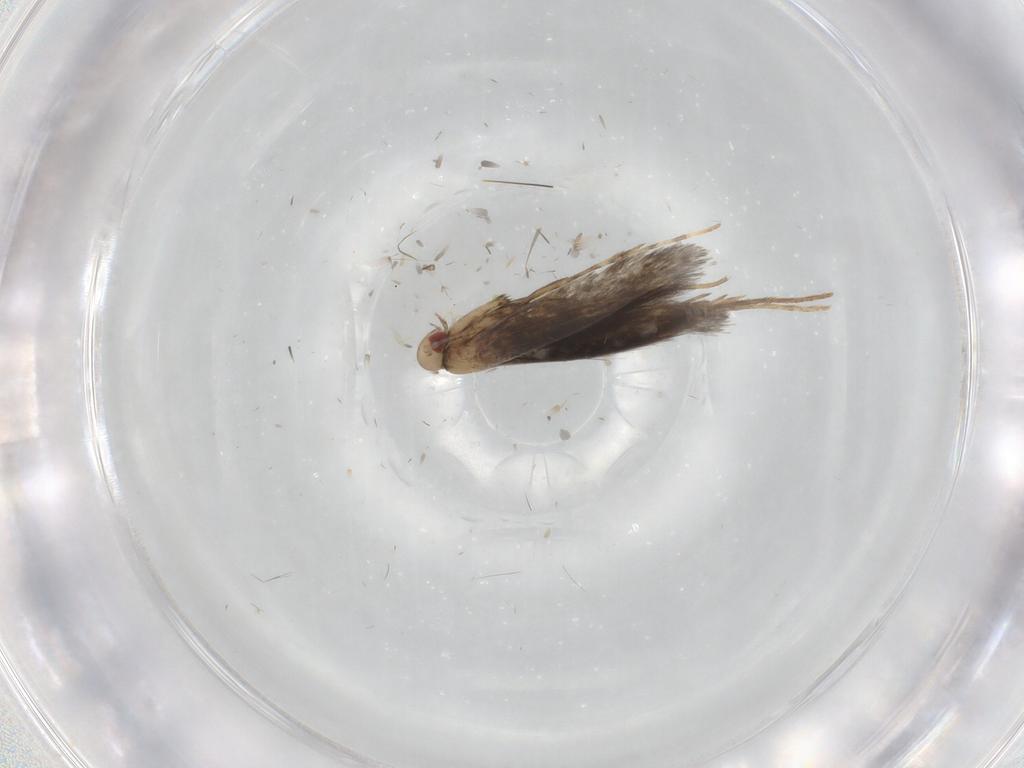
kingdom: Animalia
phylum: Arthropoda
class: Insecta
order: Lepidoptera
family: Gracillariidae
